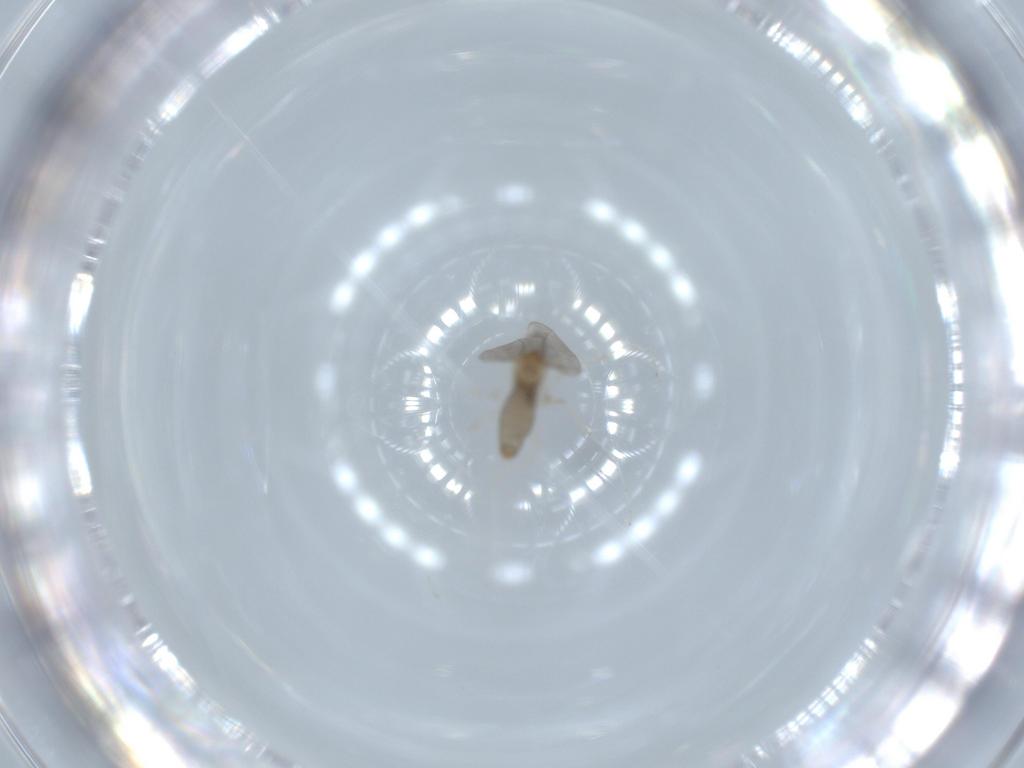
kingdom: Animalia
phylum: Arthropoda
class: Insecta
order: Diptera
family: Cecidomyiidae
